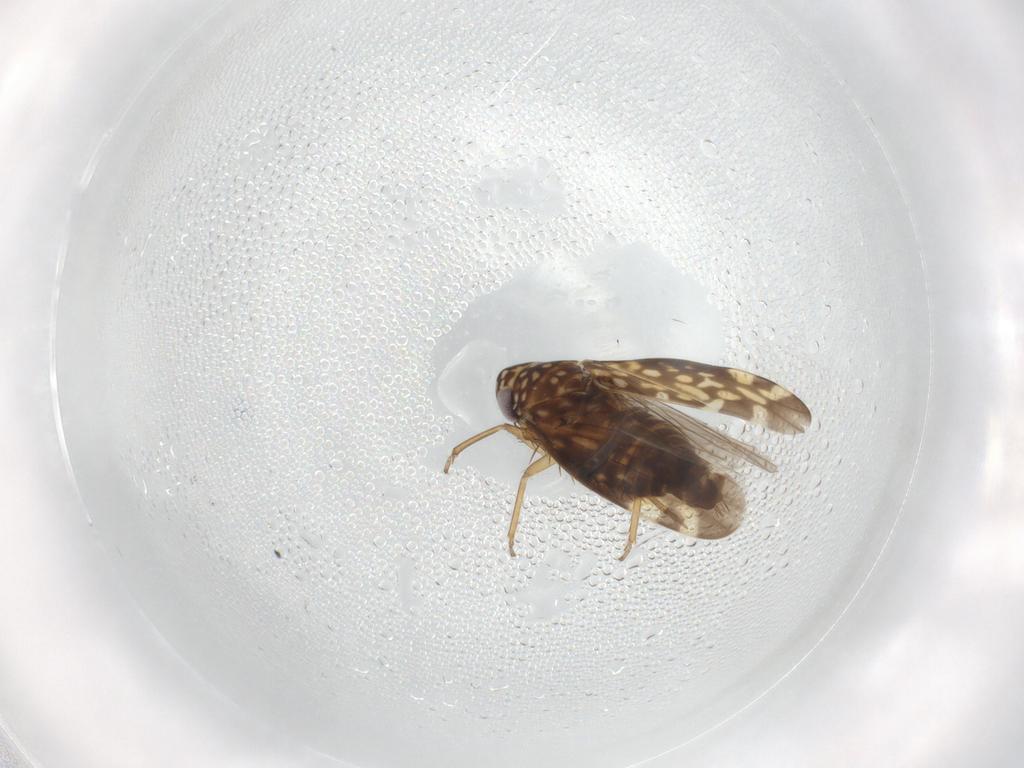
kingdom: Animalia
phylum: Arthropoda
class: Insecta
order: Hemiptera
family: Cicadellidae
